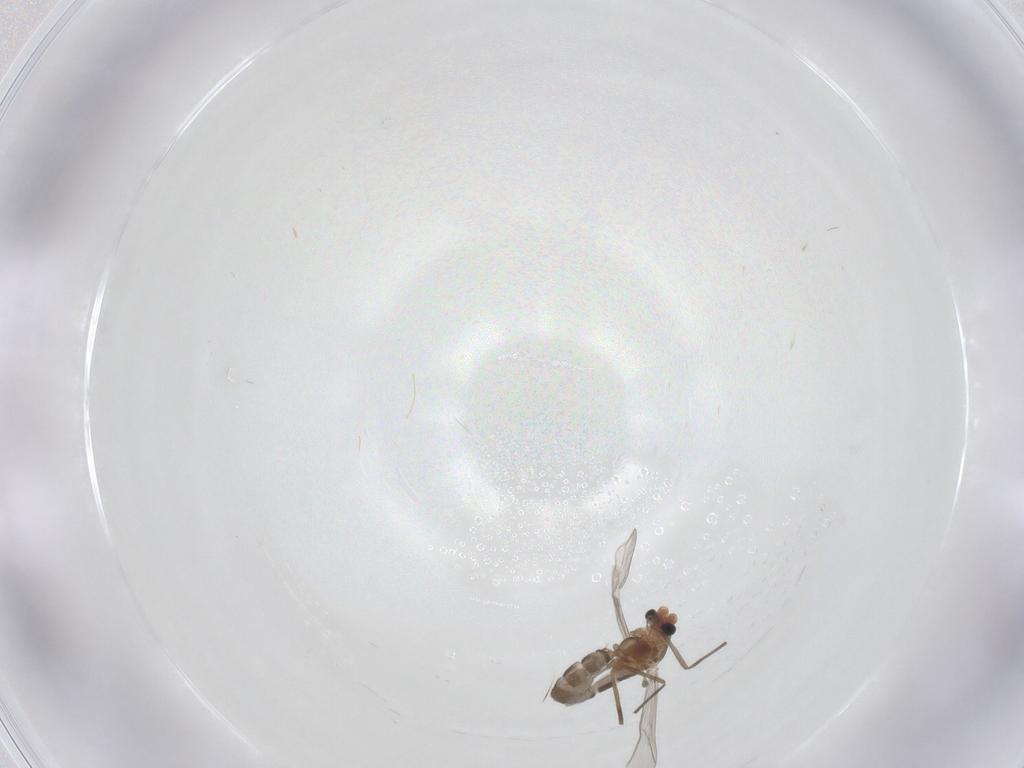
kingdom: Animalia
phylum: Arthropoda
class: Insecta
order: Diptera
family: Chironomidae
